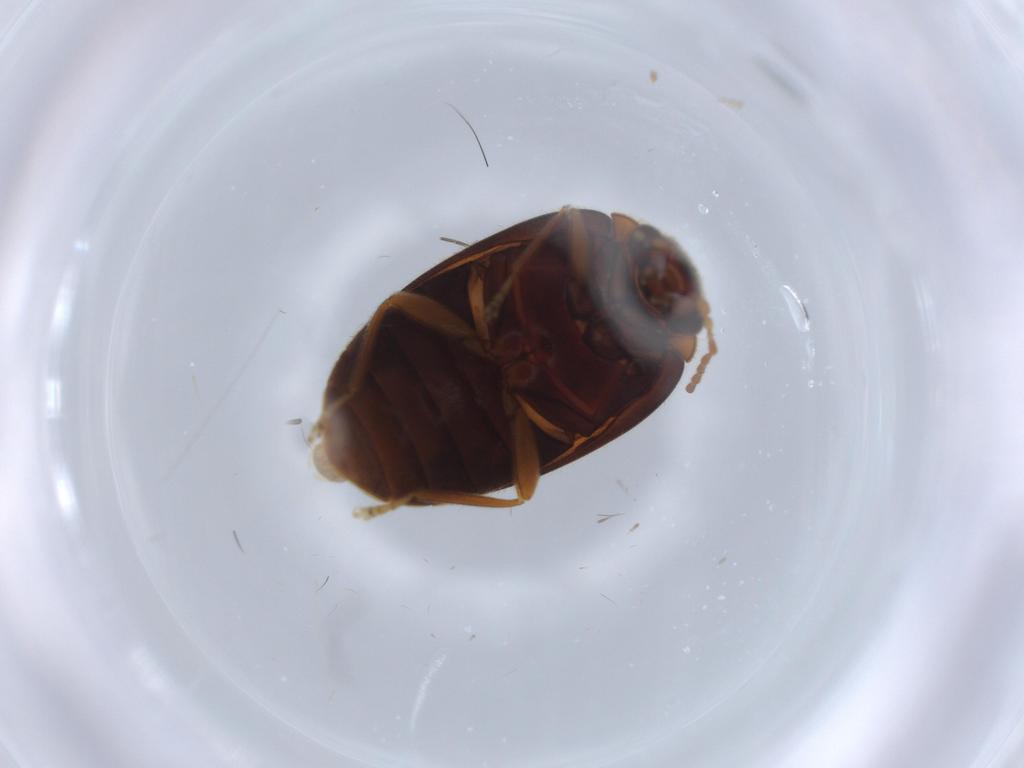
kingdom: Animalia
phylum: Arthropoda
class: Insecta
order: Coleoptera
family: Scirtidae
